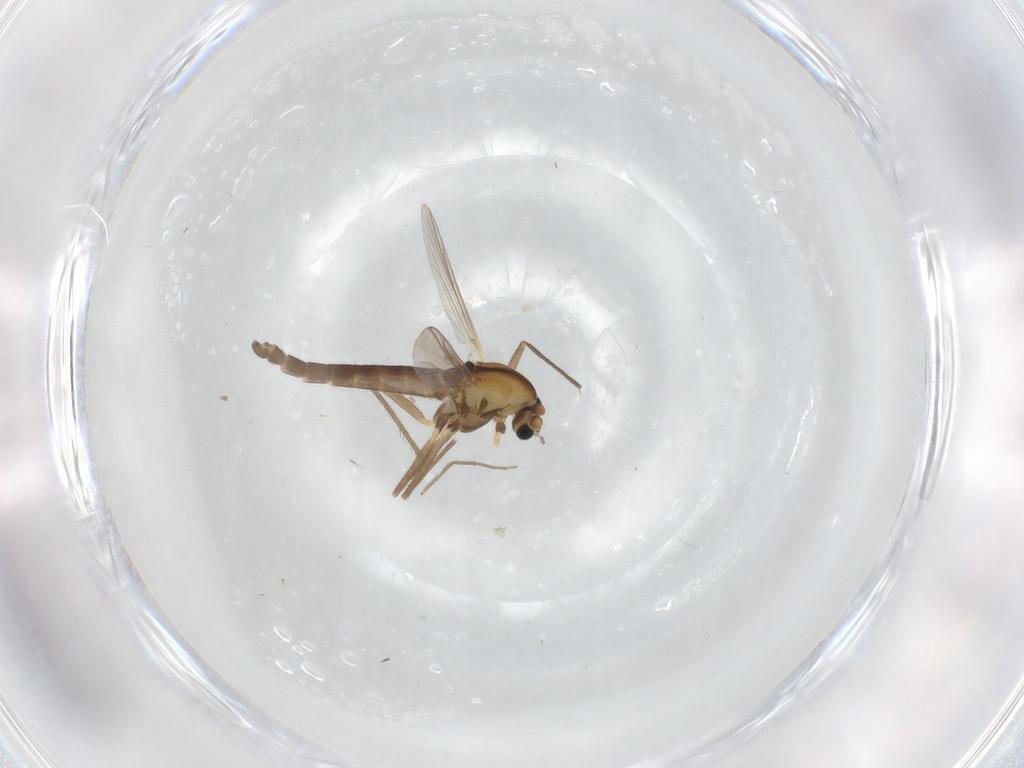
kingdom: Animalia
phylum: Arthropoda
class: Insecta
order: Diptera
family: Chironomidae
